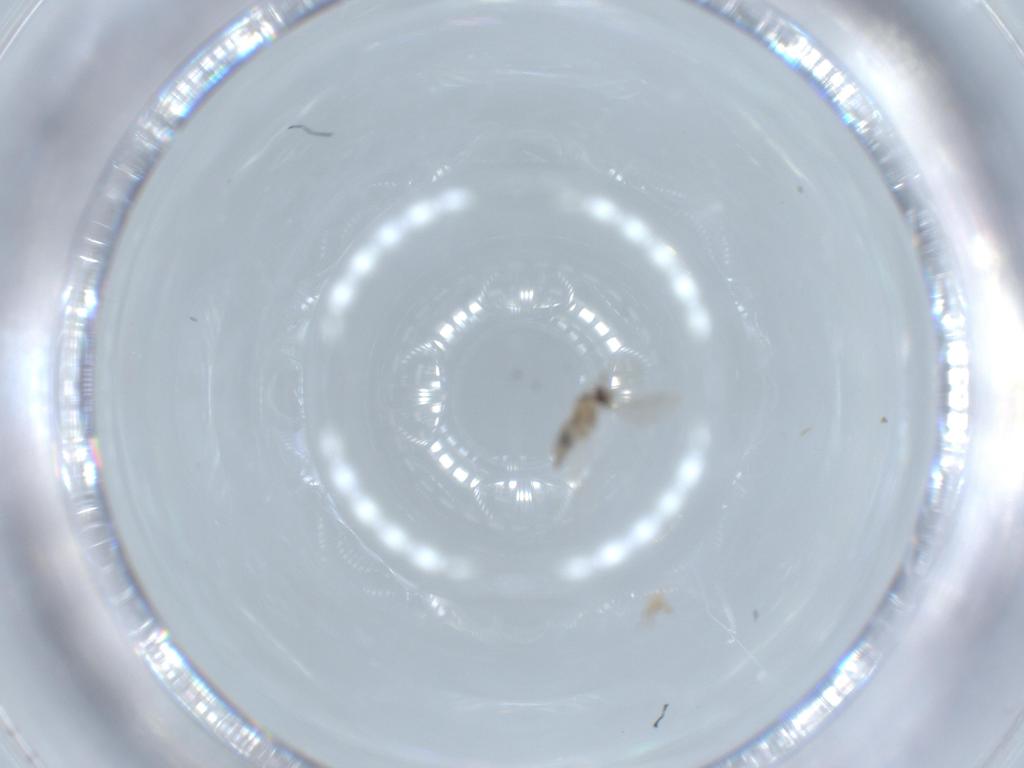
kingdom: Animalia
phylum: Arthropoda
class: Insecta
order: Diptera
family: Cecidomyiidae
